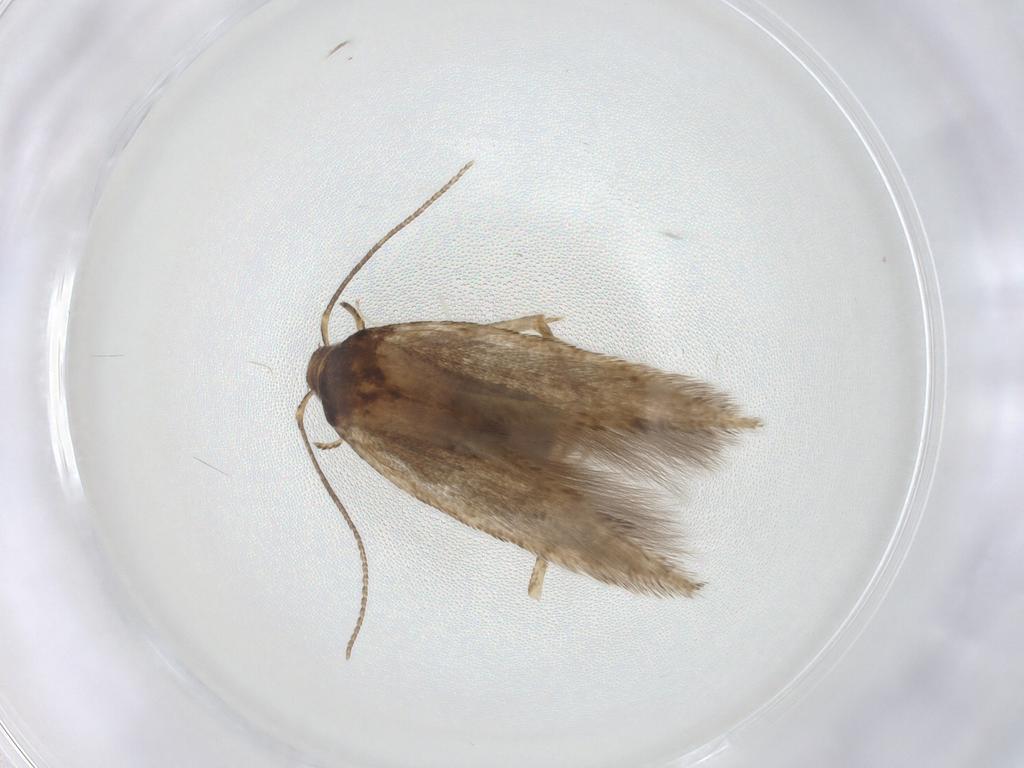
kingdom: Animalia
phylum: Arthropoda
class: Insecta
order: Lepidoptera
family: Cosmopterigidae
